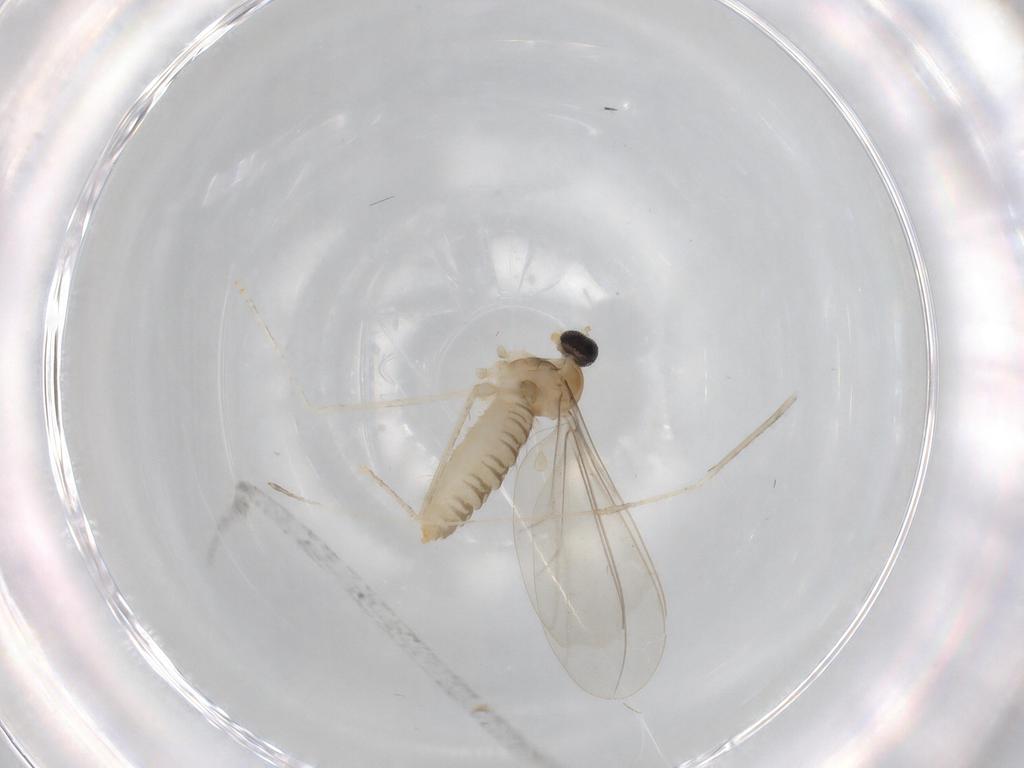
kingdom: Animalia
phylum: Arthropoda
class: Insecta
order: Diptera
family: Cecidomyiidae
